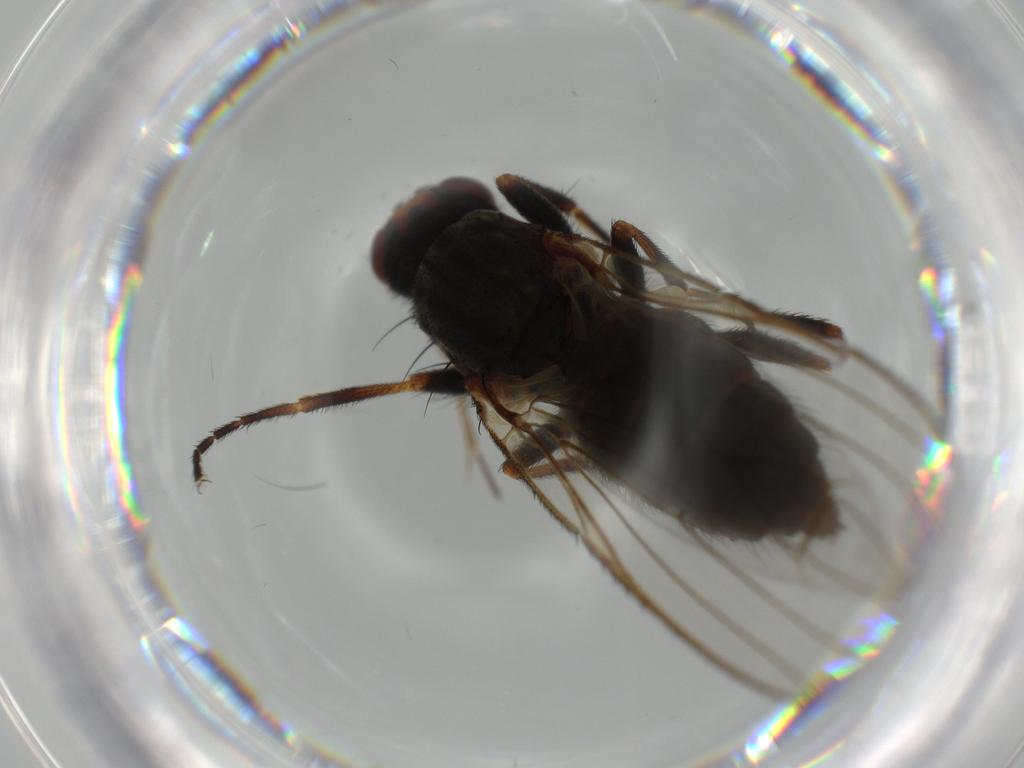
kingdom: Animalia
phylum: Arthropoda
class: Insecta
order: Diptera
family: Heleomyzidae
